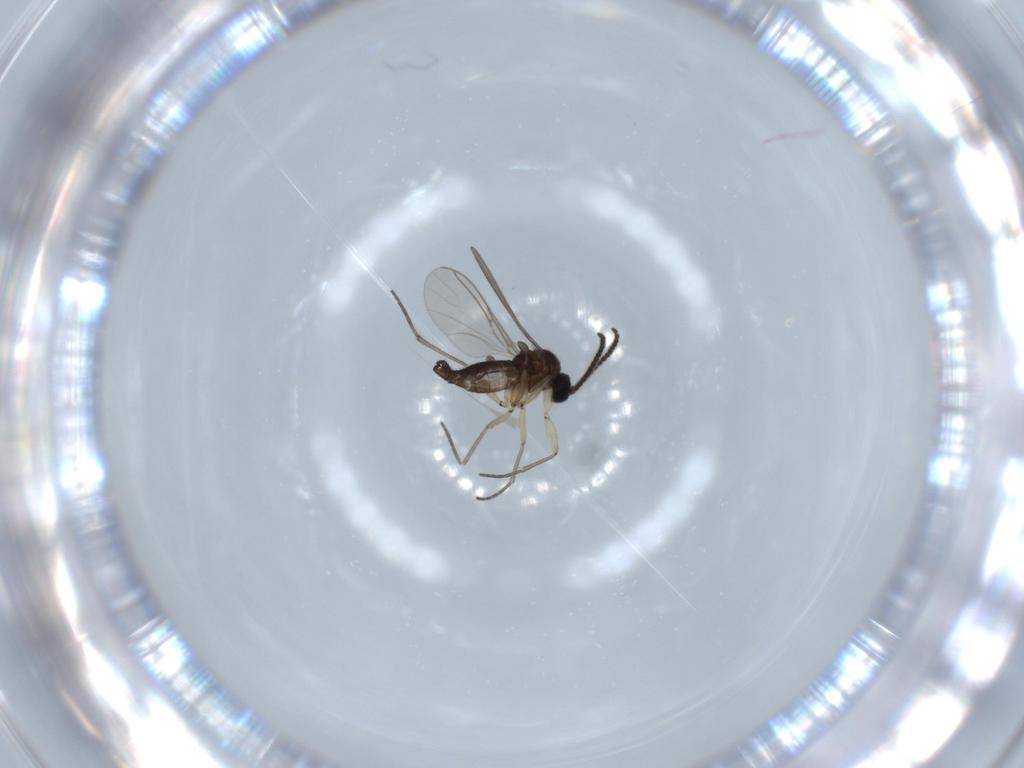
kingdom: Animalia
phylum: Arthropoda
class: Insecta
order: Diptera
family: Sciaridae
